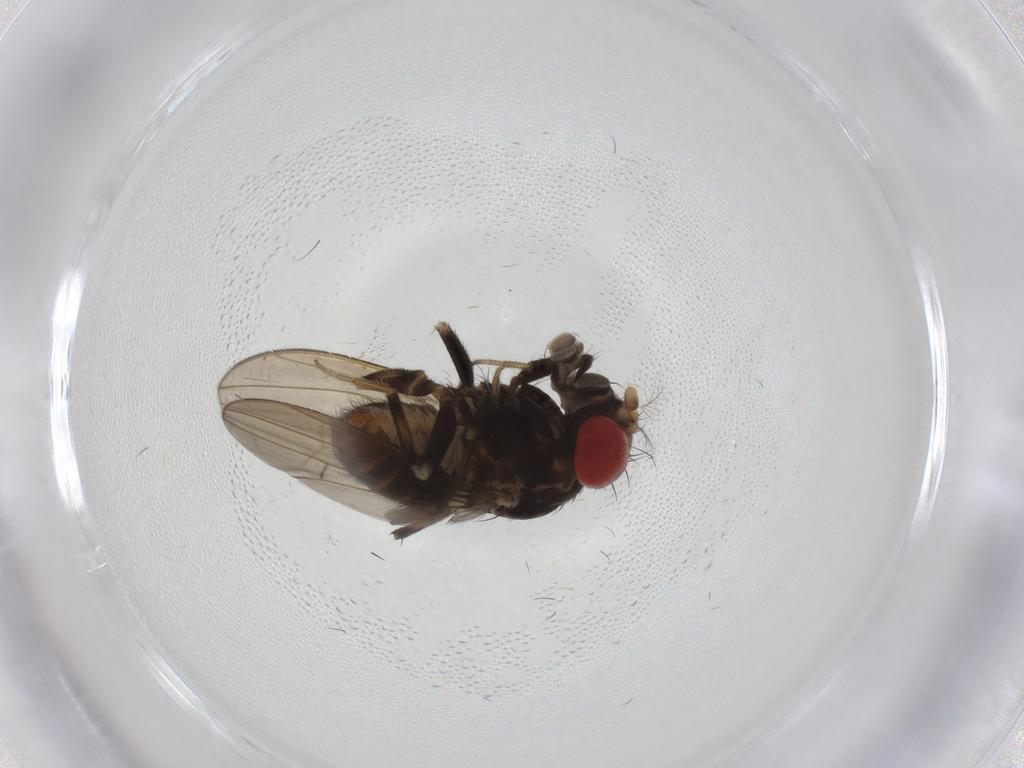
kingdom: Animalia
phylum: Arthropoda
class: Insecta
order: Diptera
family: Drosophilidae
